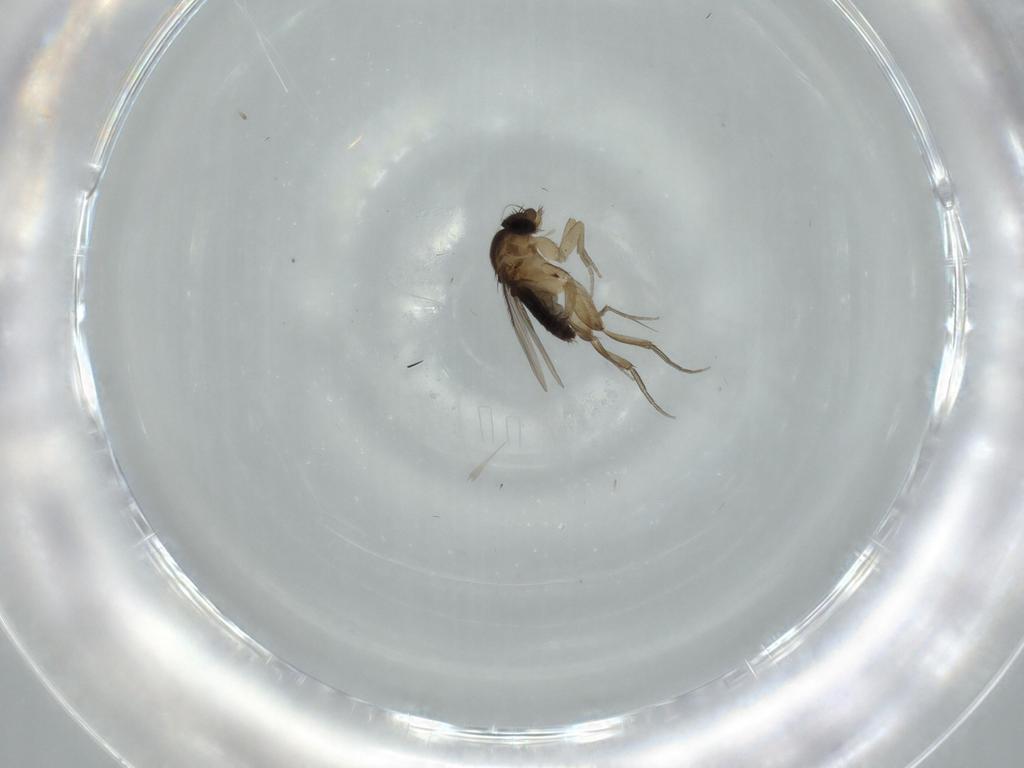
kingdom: Animalia
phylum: Arthropoda
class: Insecta
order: Diptera
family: Phoridae
